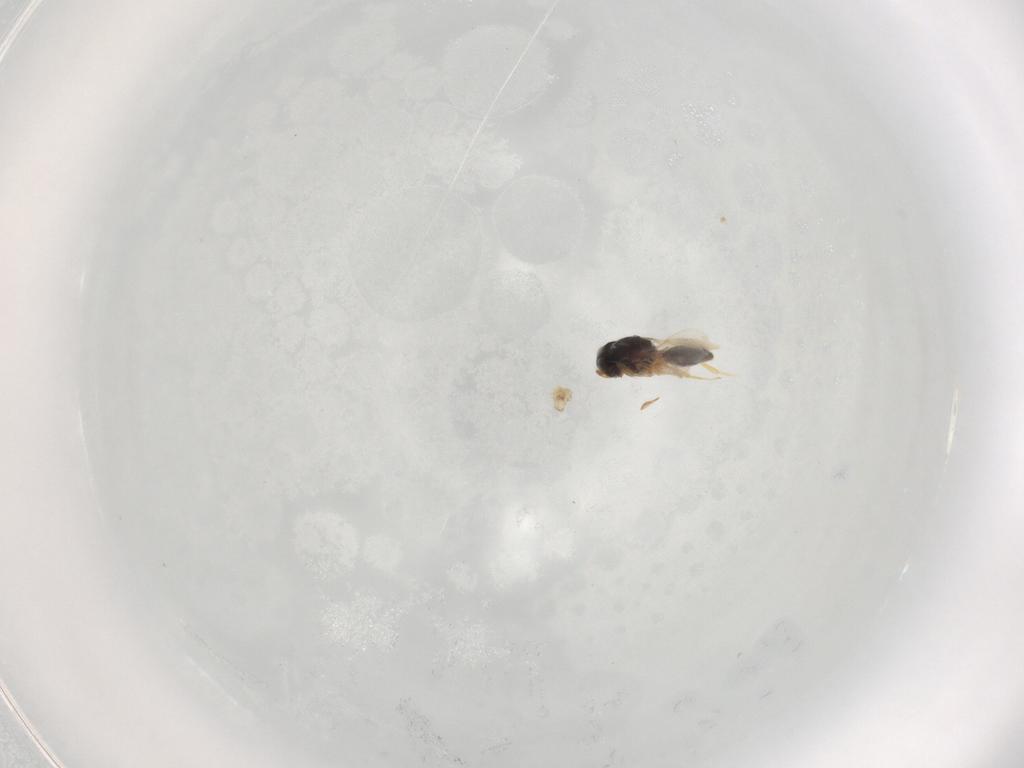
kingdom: Animalia
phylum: Arthropoda
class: Insecta
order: Hymenoptera
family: Scelionidae
